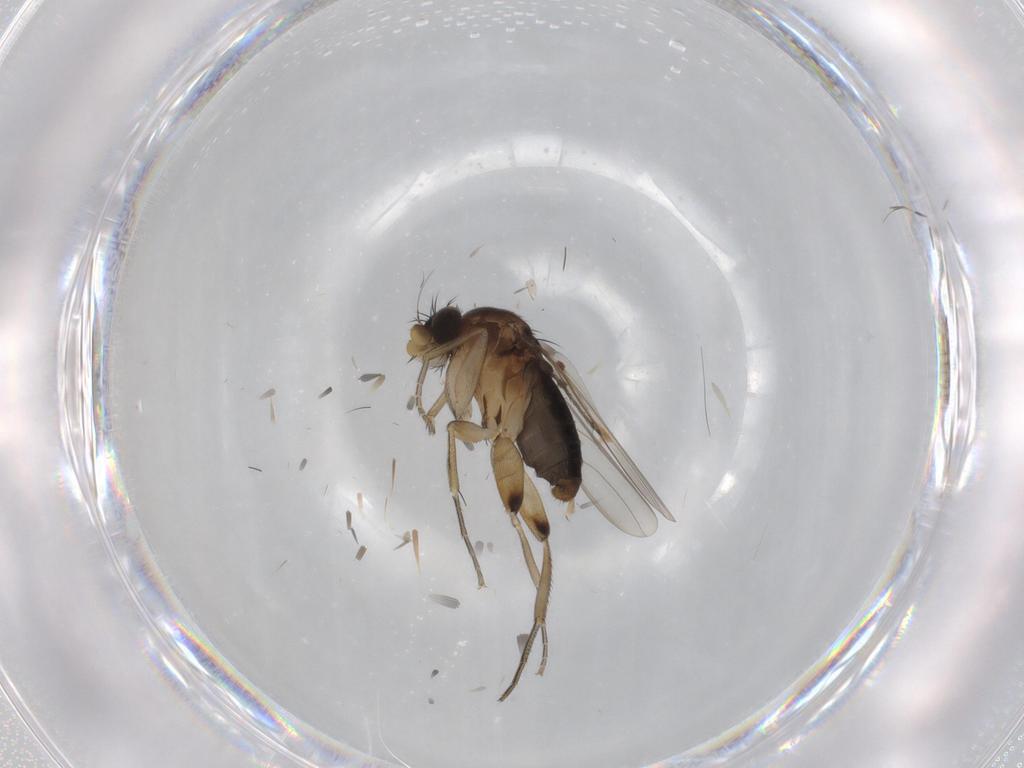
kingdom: Animalia
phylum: Arthropoda
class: Insecta
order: Diptera
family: Phoridae
